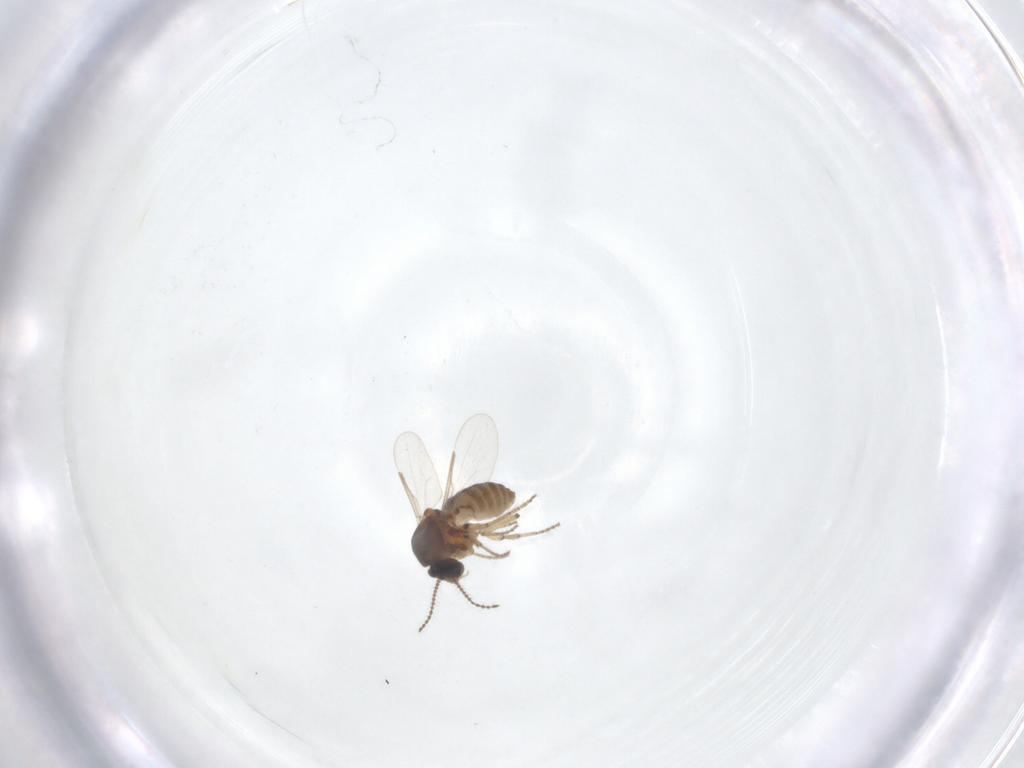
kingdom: Animalia
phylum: Arthropoda
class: Insecta
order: Diptera
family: Ceratopogonidae
